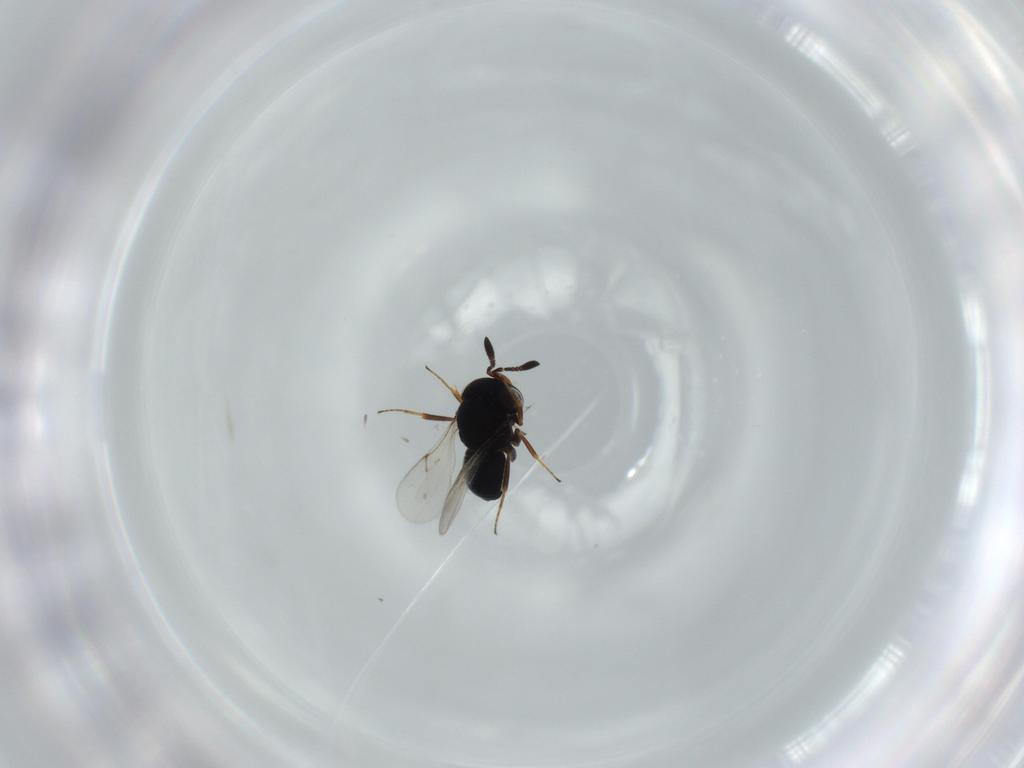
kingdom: Animalia
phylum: Arthropoda
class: Insecta
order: Hymenoptera
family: Scelionidae
